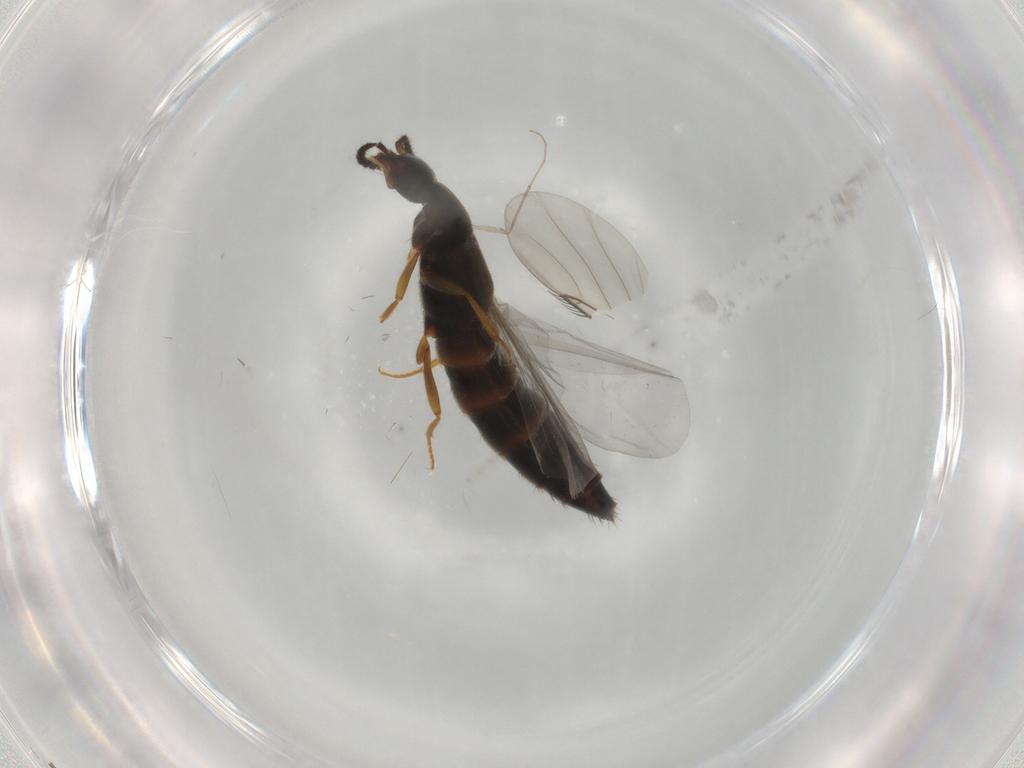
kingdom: Animalia
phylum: Arthropoda
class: Insecta
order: Coleoptera
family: Staphylinidae
